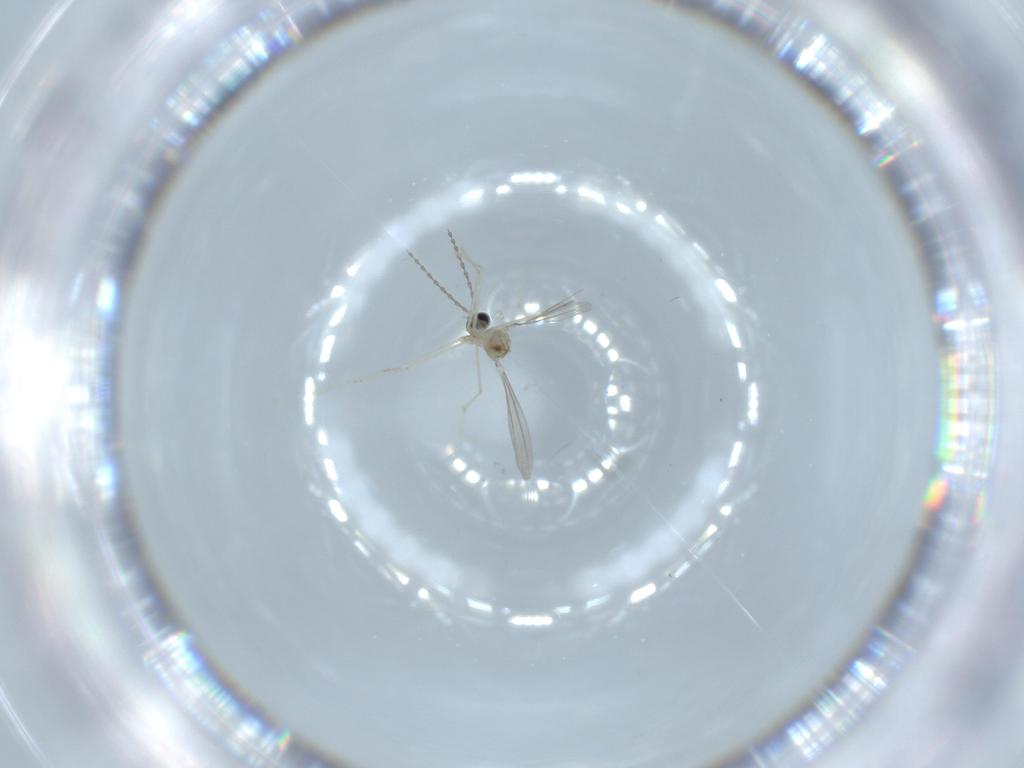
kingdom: Animalia
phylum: Arthropoda
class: Insecta
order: Diptera
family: Cecidomyiidae
